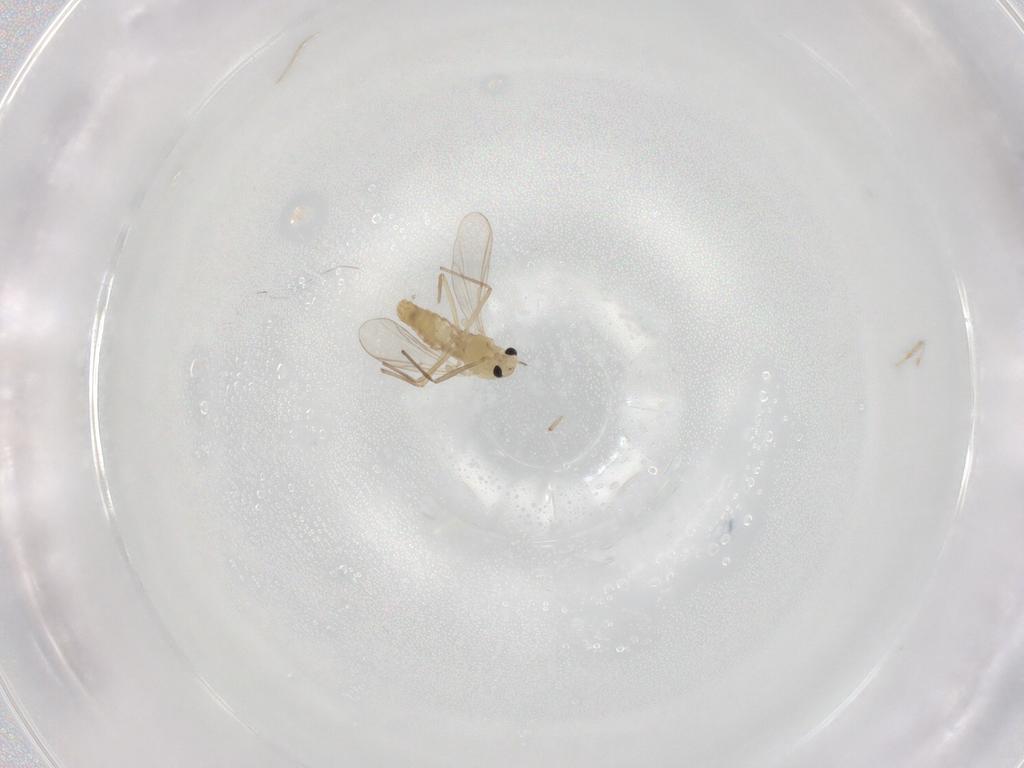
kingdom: Animalia
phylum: Arthropoda
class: Insecta
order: Diptera
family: Chironomidae
